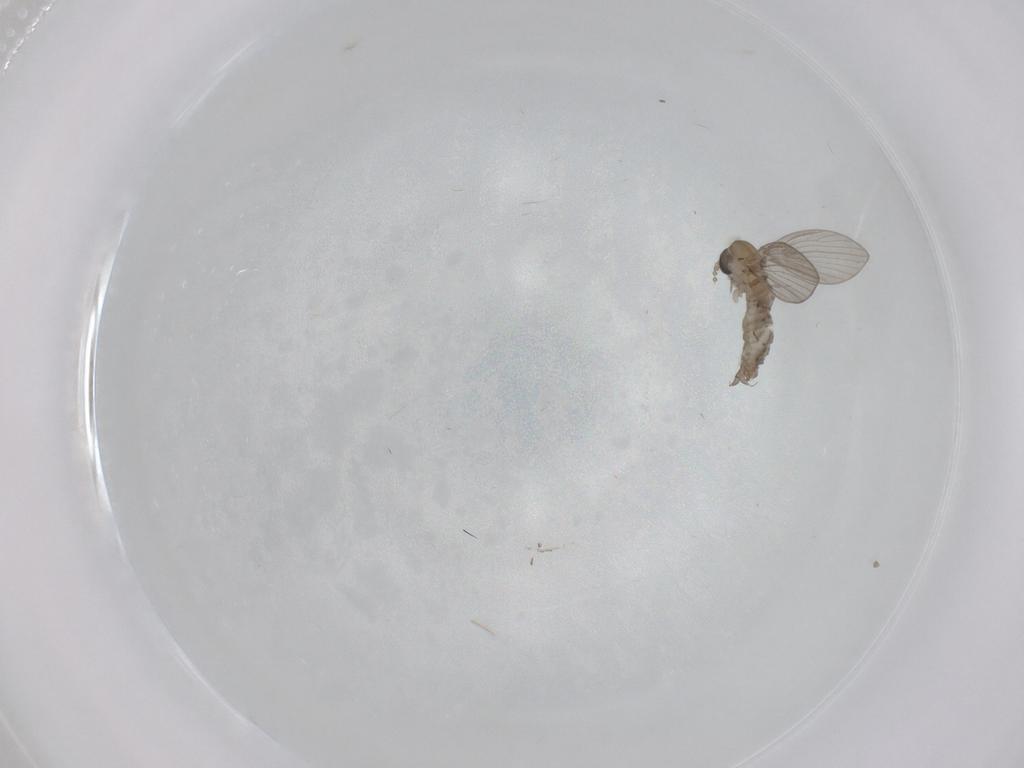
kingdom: Animalia
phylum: Arthropoda
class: Insecta
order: Diptera
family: Psychodidae
